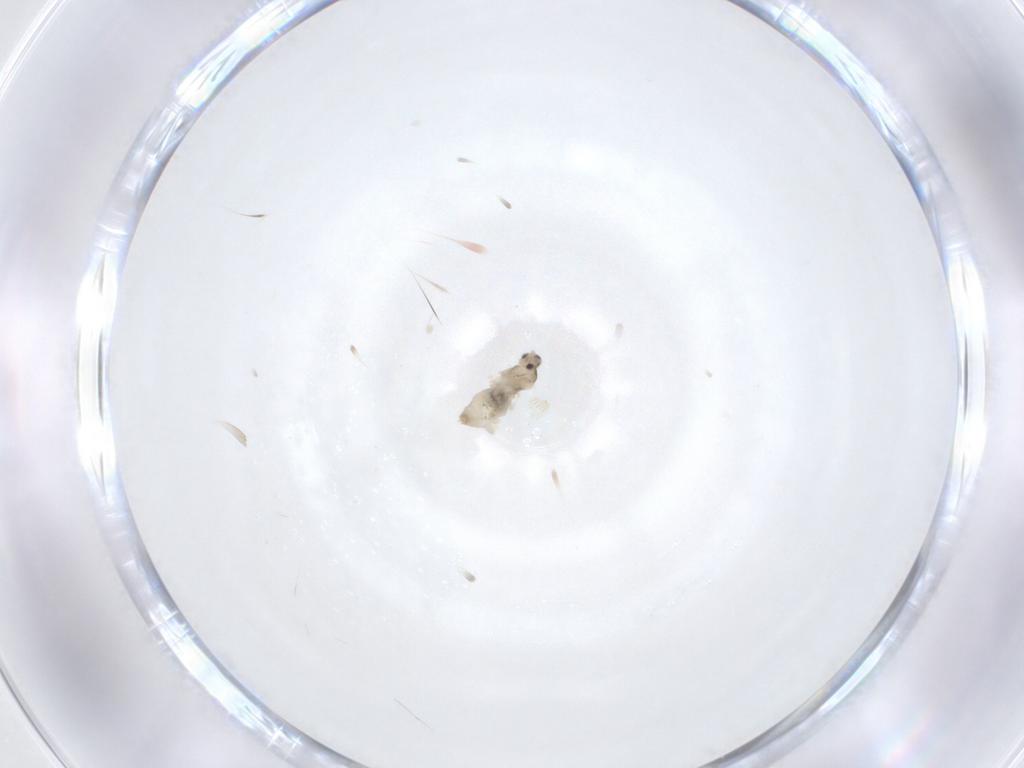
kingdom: Animalia
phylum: Arthropoda
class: Insecta
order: Diptera
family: Cecidomyiidae
